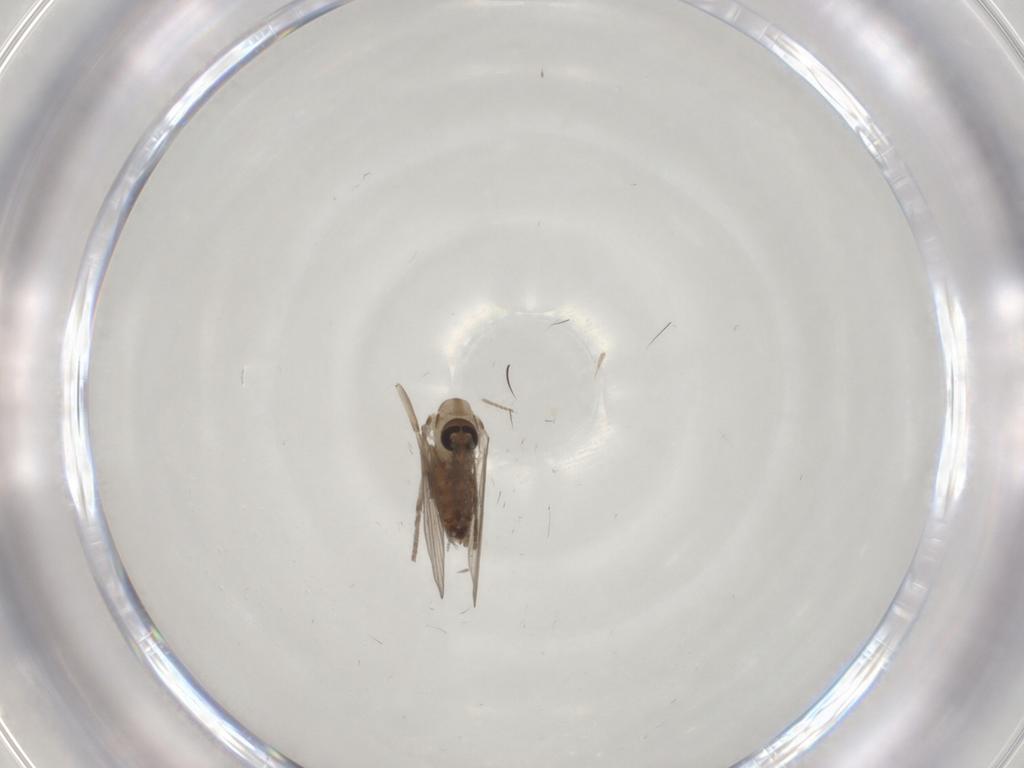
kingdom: Animalia
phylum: Arthropoda
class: Insecta
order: Diptera
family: Psychodidae
